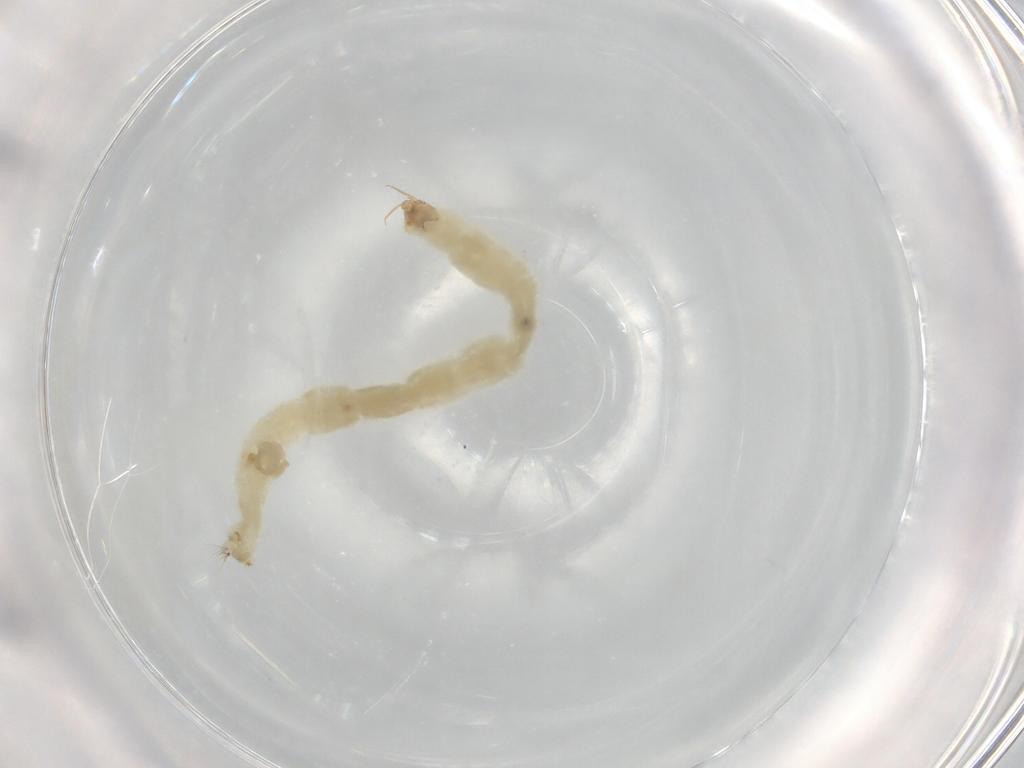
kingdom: Animalia
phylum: Arthropoda
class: Insecta
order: Diptera
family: Chironomidae
